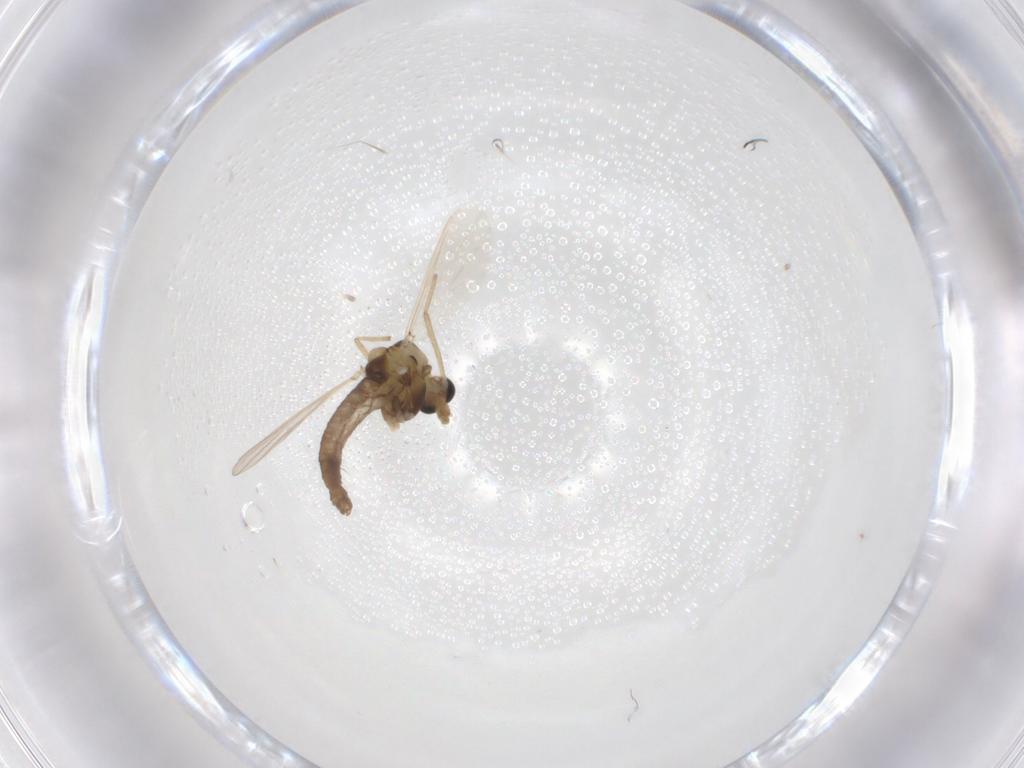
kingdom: Animalia
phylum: Arthropoda
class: Insecta
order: Diptera
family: Chironomidae
